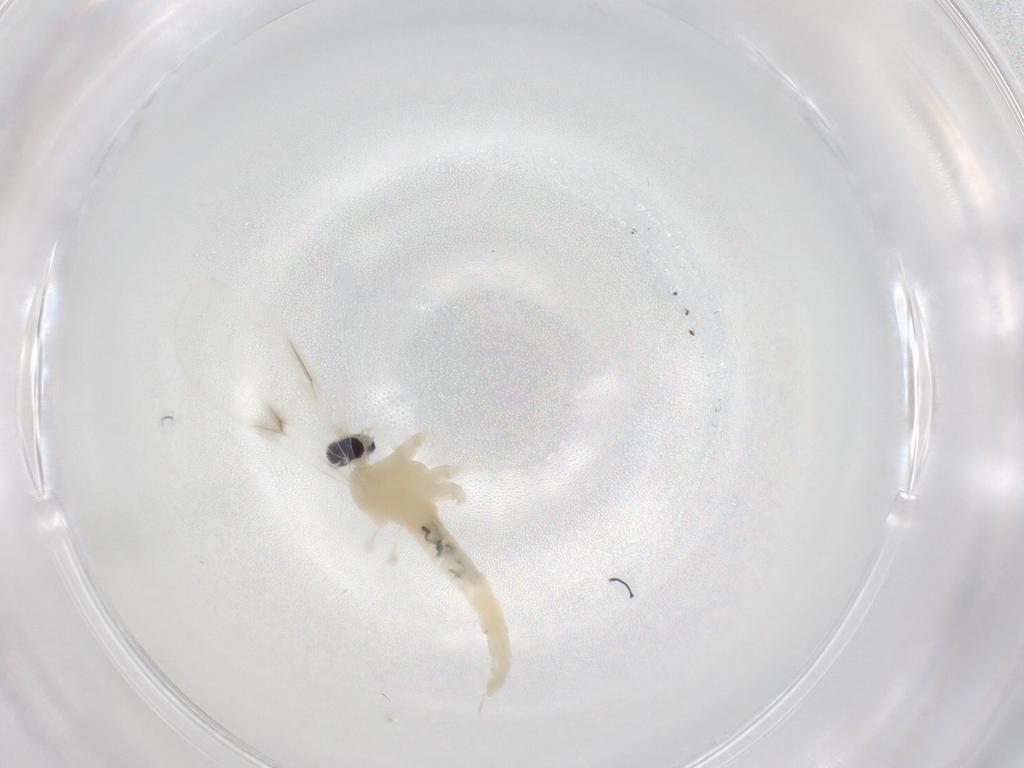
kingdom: Animalia
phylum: Arthropoda
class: Insecta
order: Diptera
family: Cecidomyiidae
